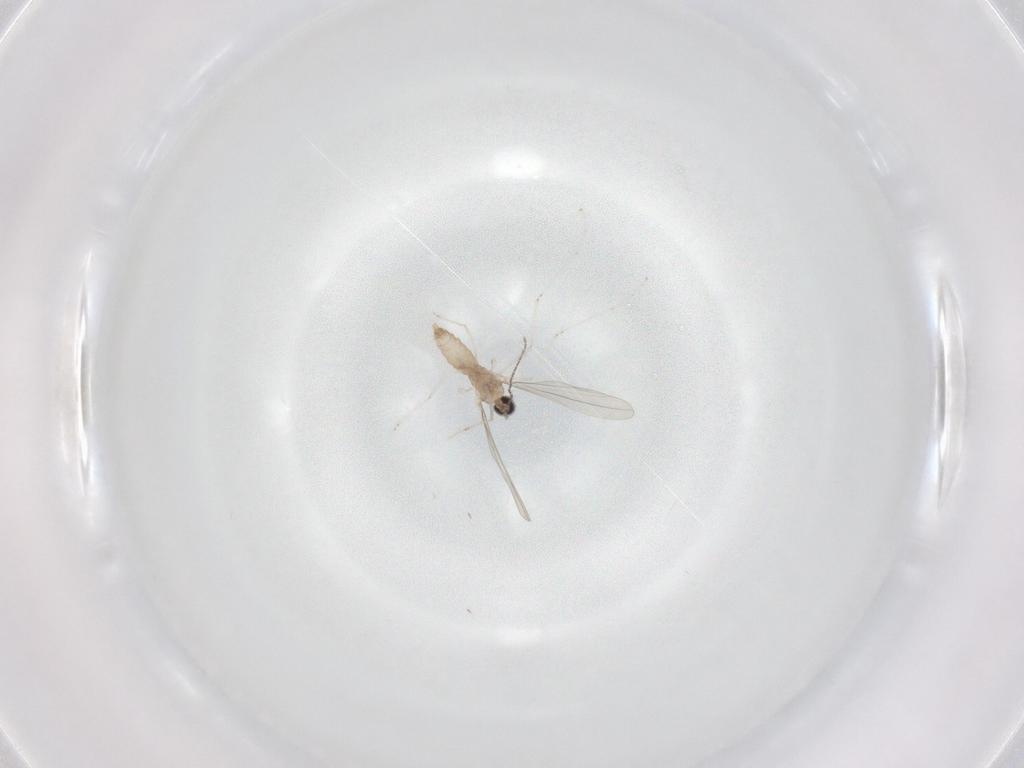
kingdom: Animalia
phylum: Arthropoda
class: Insecta
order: Diptera
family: Cecidomyiidae
